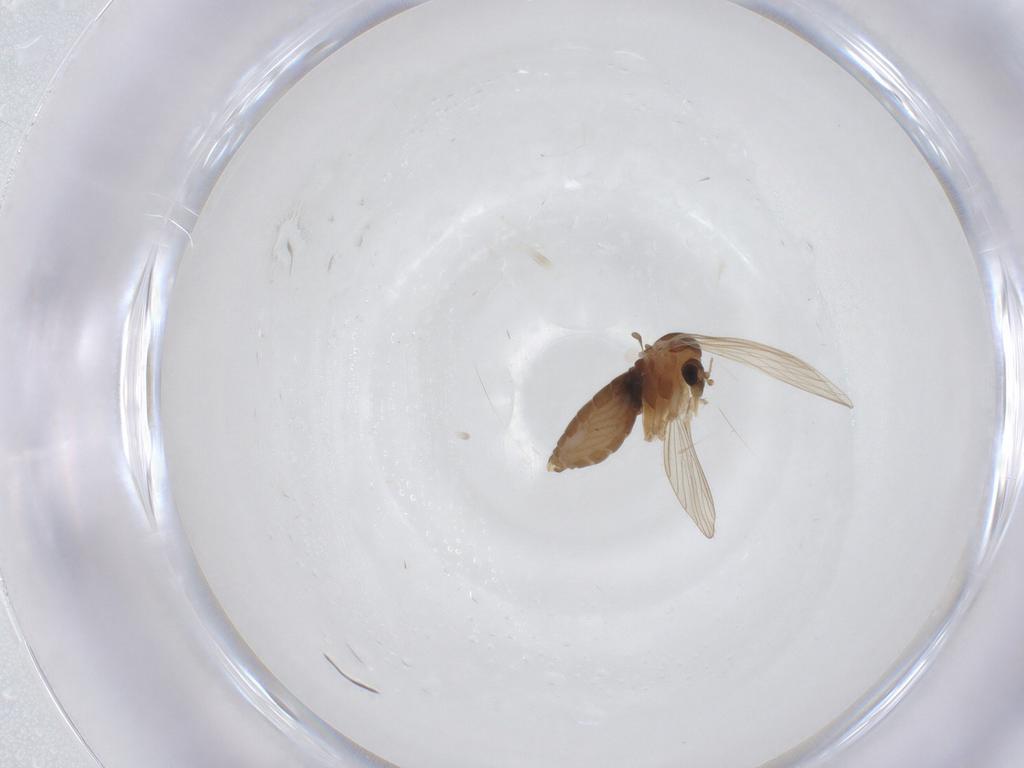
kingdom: Animalia
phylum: Arthropoda
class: Insecta
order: Diptera
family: Psychodidae
